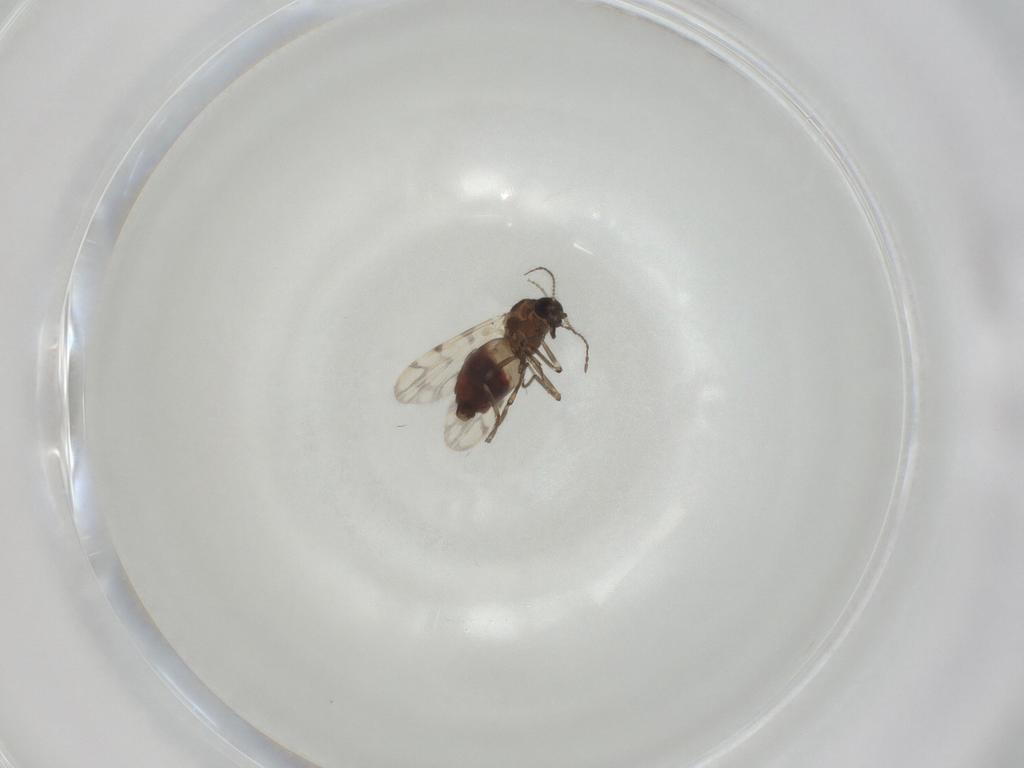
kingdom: Animalia
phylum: Arthropoda
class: Insecta
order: Diptera
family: Ceratopogonidae
